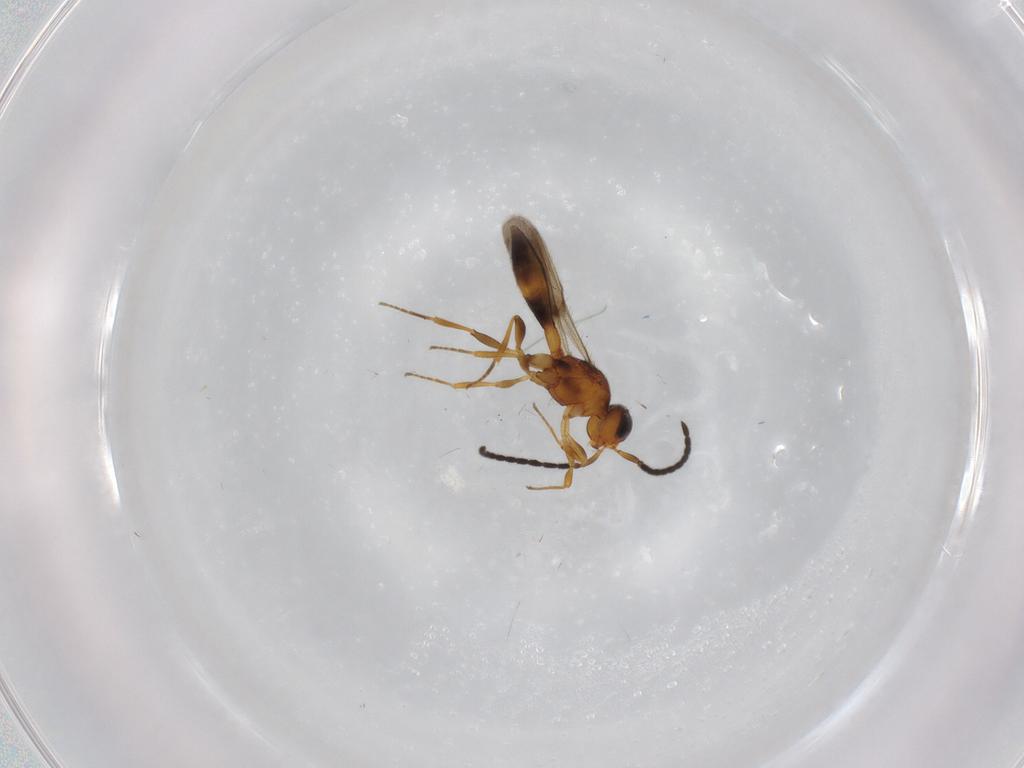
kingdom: Animalia
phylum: Arthropoda
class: Insecta
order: Hymenoptera
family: Scelionidae
